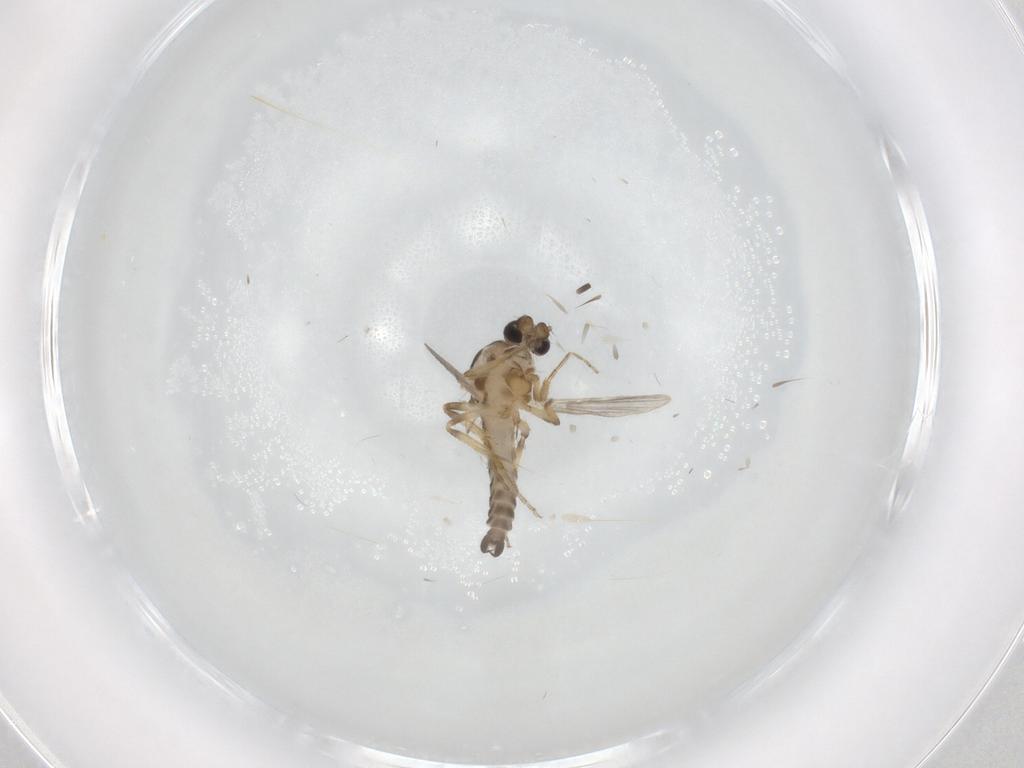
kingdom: Animalia
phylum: Arthropoda
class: Insecta
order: Diptera
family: Ceratopogonidae
